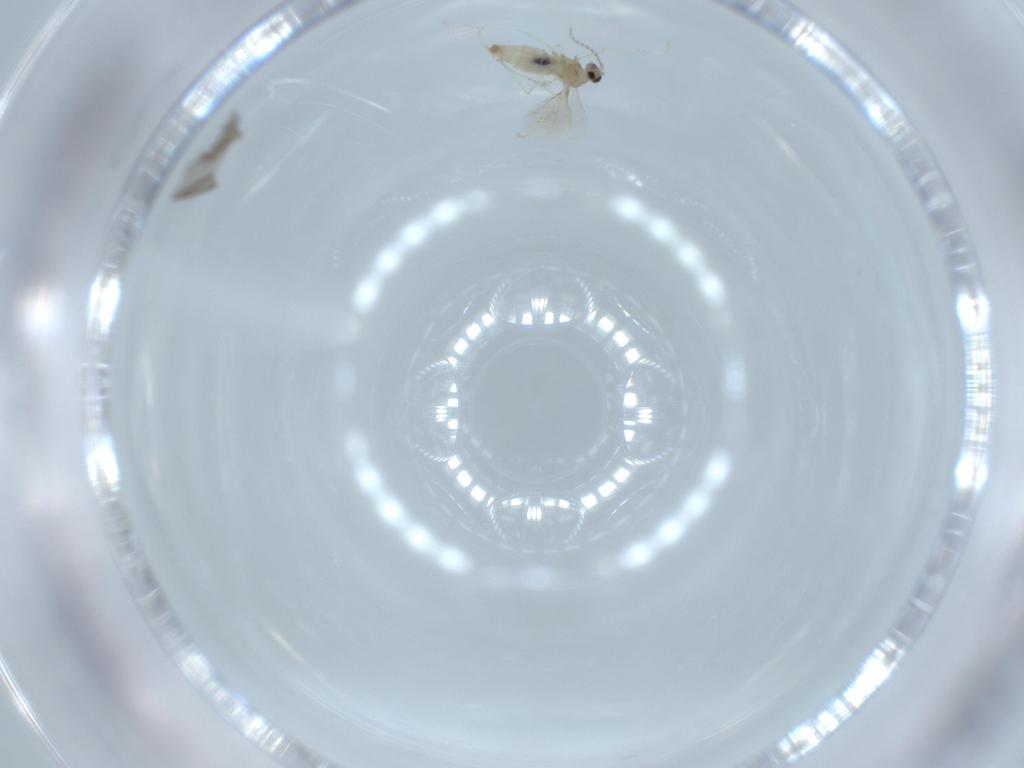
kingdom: Animalia
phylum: Arthropoda
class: Insecta
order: Diptera
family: Cecidomyiidae
